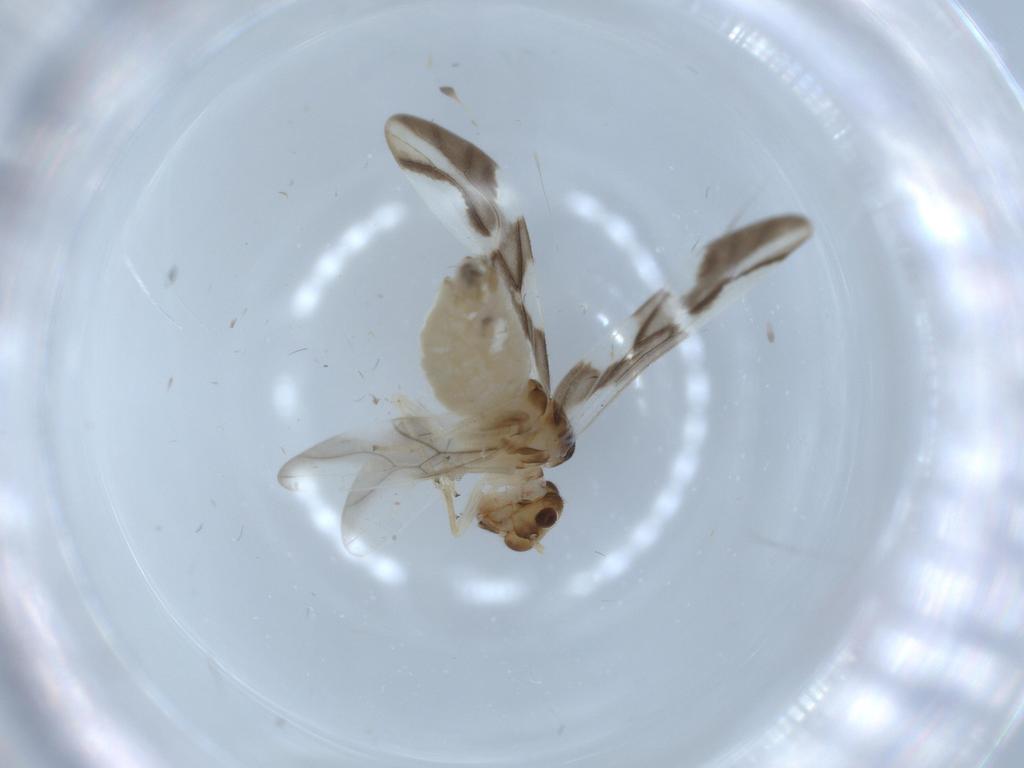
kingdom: Animalia
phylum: Arthropoda
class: Insecta
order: Psocodea
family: Caeciliusidae
